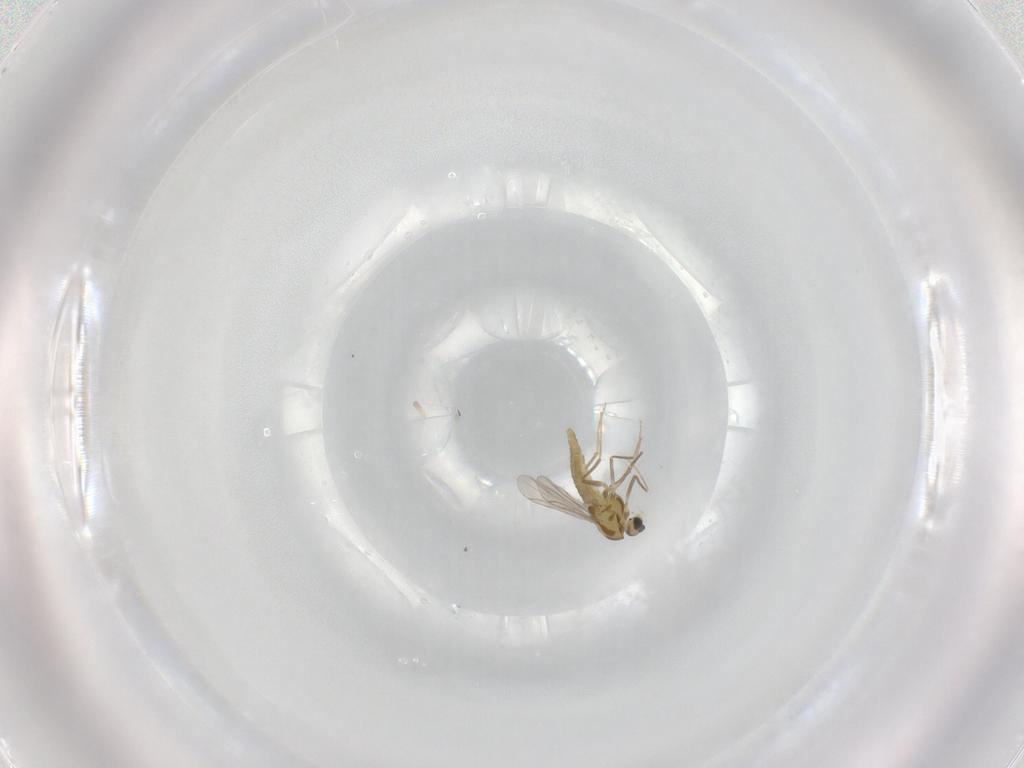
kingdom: Animalia
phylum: Arthropoda
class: Insecta
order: Diptera
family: Chironomidae
